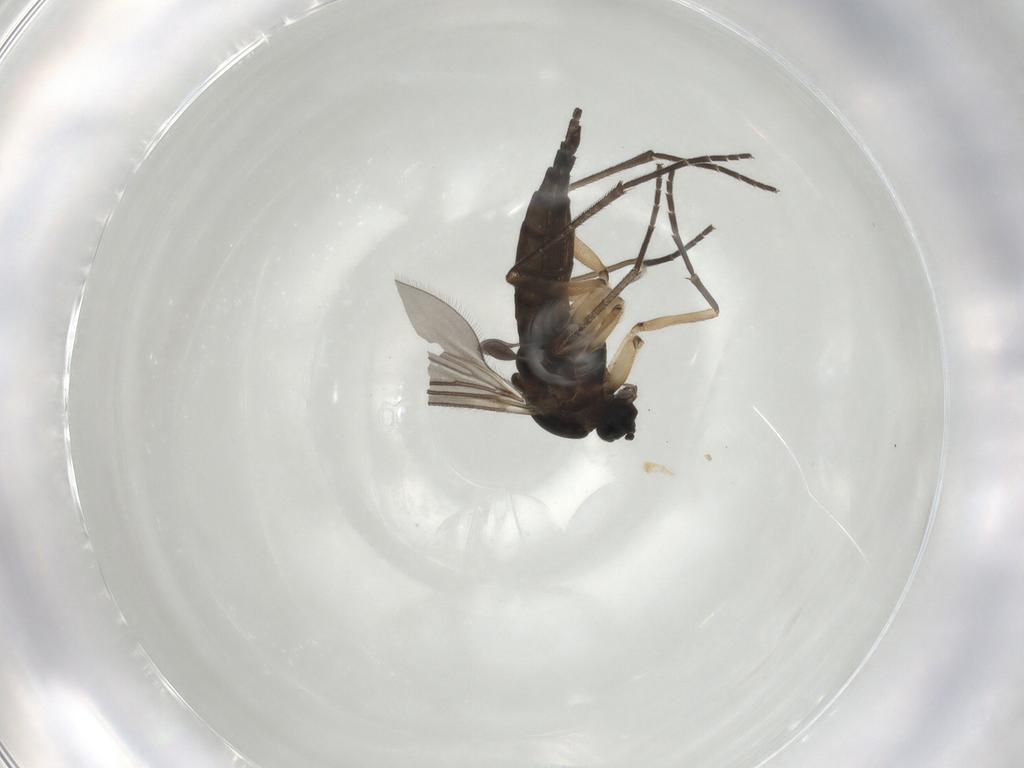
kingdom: Animalia
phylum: Arthropoda
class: Insecta
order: Diptera
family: Sciaridae
